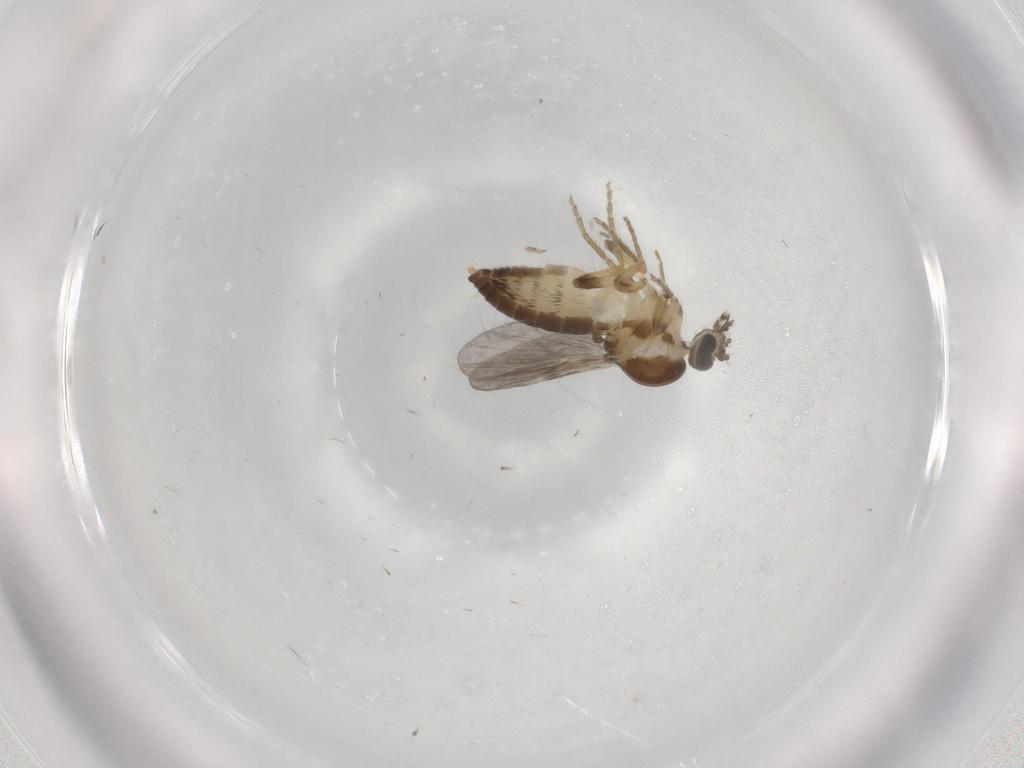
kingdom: Animalia
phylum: Arthropoda
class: Insecta
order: Diptera
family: Ceratopogonidae
